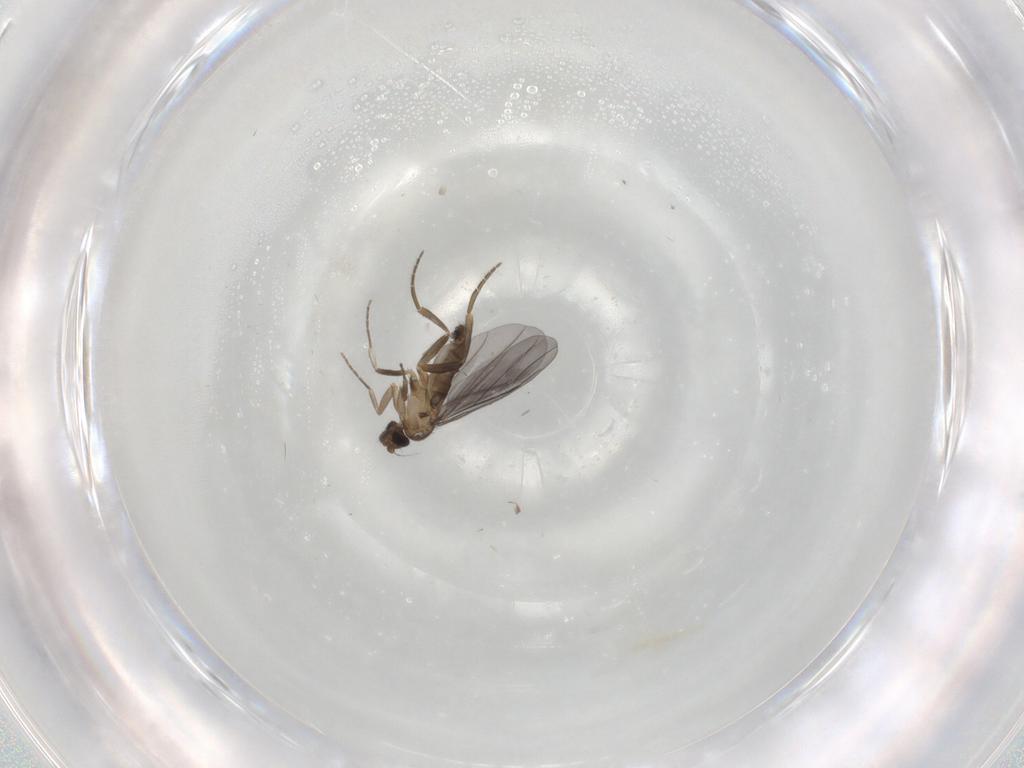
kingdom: Animalia
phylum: Arthropoda
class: Insecta
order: Diptera
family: Phoridae
